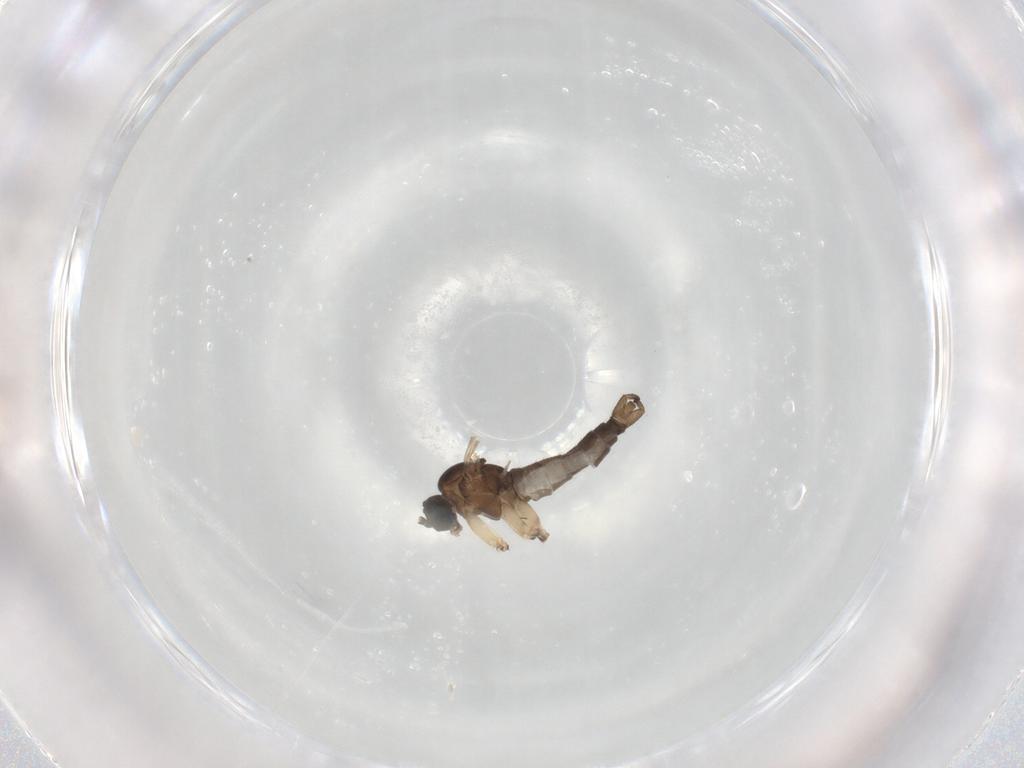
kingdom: Animalia
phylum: Arthropoda
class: Insecta
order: Diptera
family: Sciaridae
